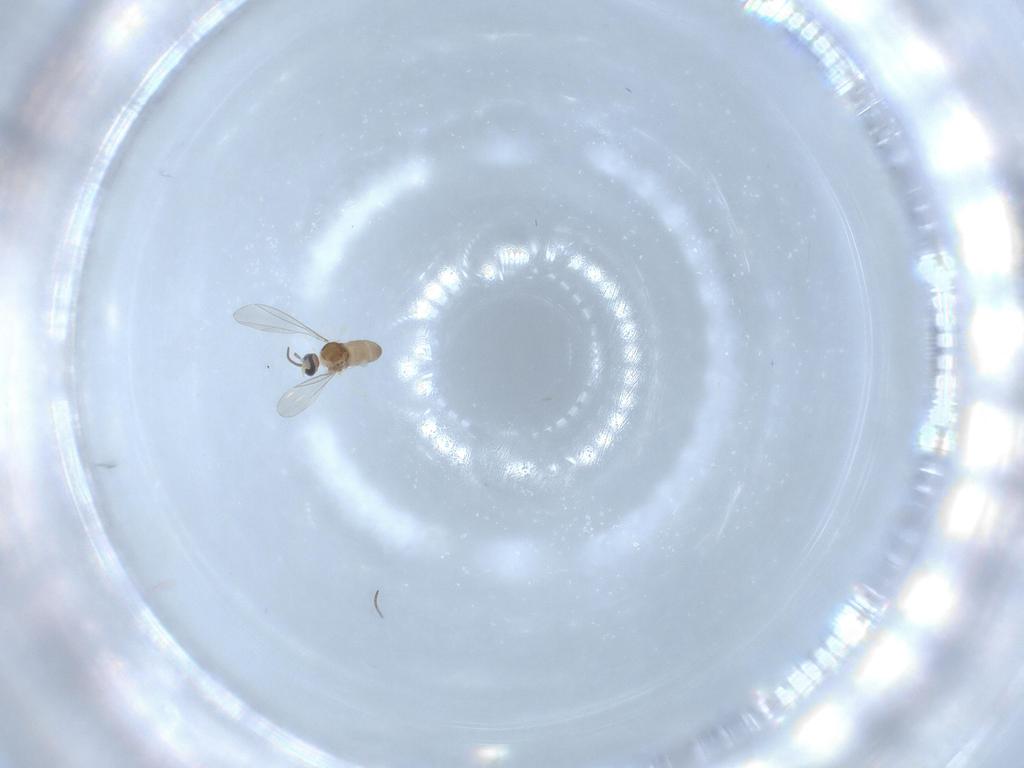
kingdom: Animalia
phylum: Arthropoda
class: Insecta
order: Diptera
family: Cecidomyiidae
